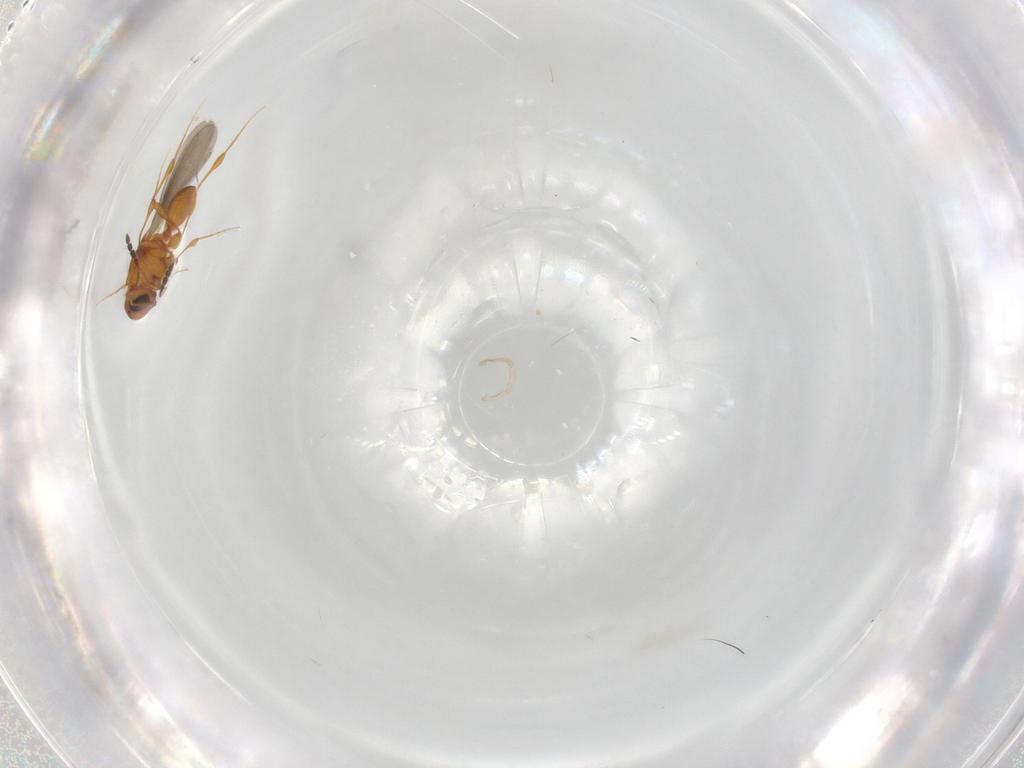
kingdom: Animalia
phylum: Arthropoda
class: Insecta
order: Hymenoptera
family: Platygastridae
